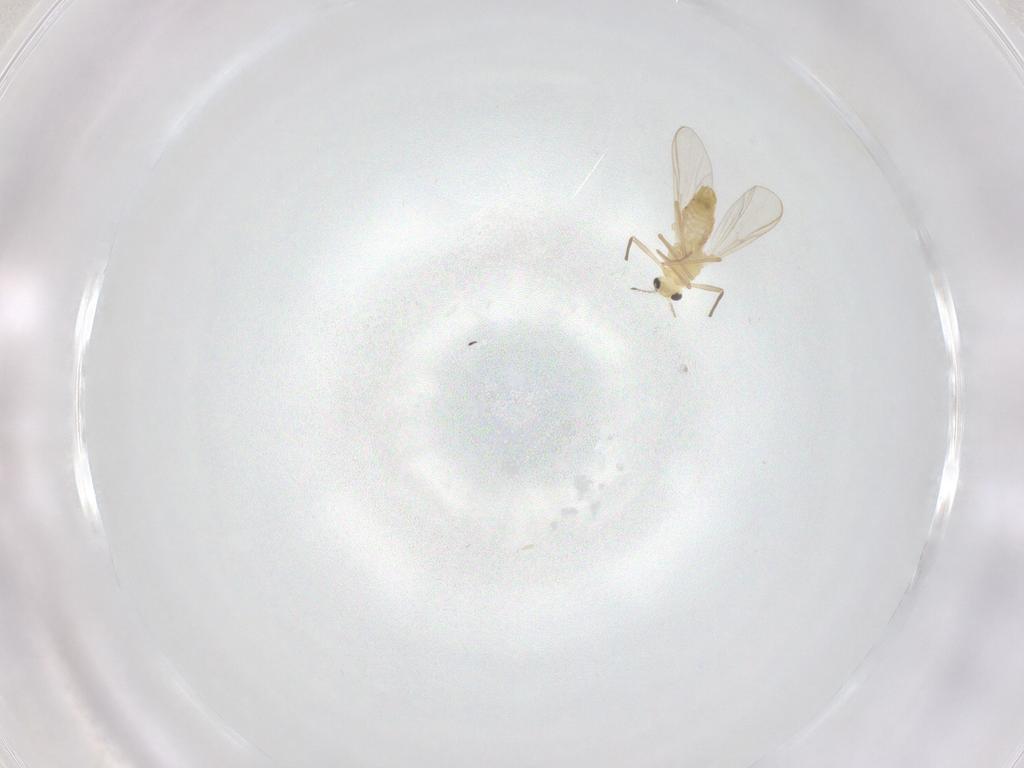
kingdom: Animalia
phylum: Arthropoda
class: Insecta
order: Diptera
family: Chironomidae
